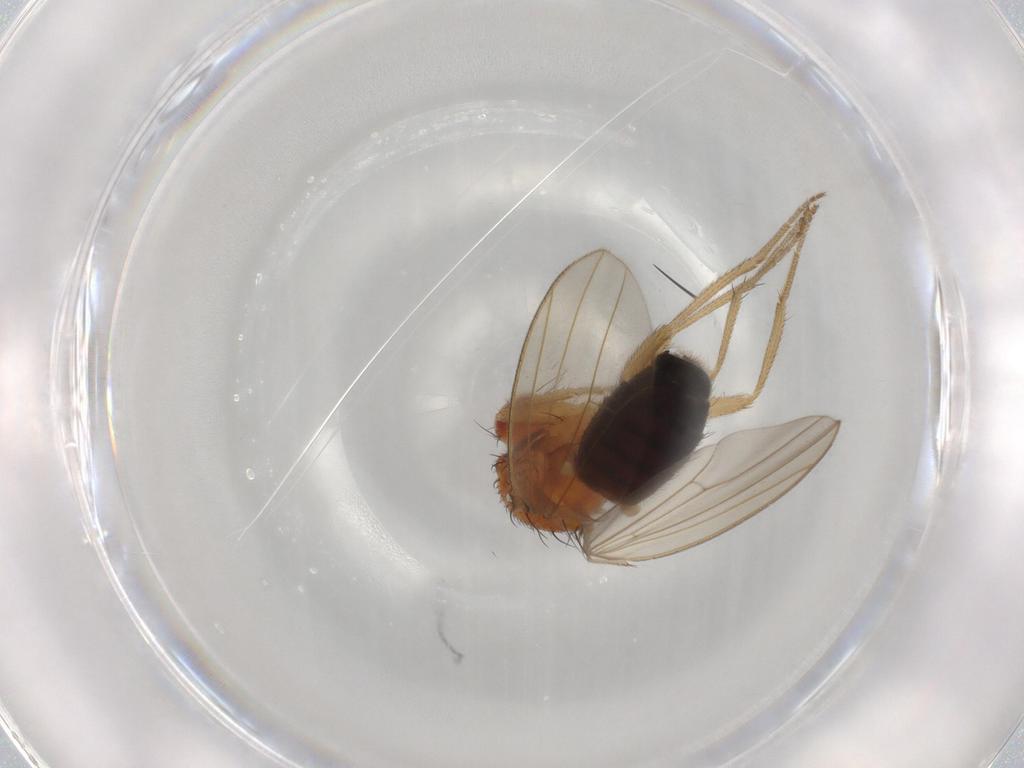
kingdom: Animalia
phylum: Arthropoda
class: Insecta
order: Diptera
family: Drosophilidae
